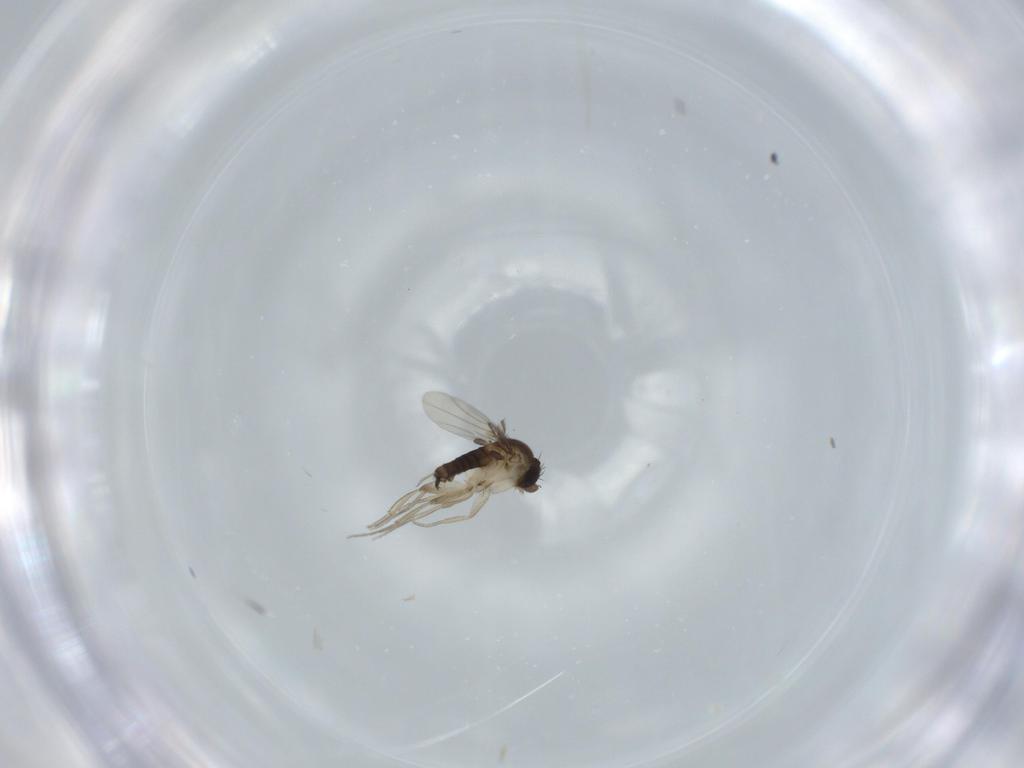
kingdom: Animalia
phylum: Arthropoda
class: Insecta
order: Diptera
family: Phoridae
